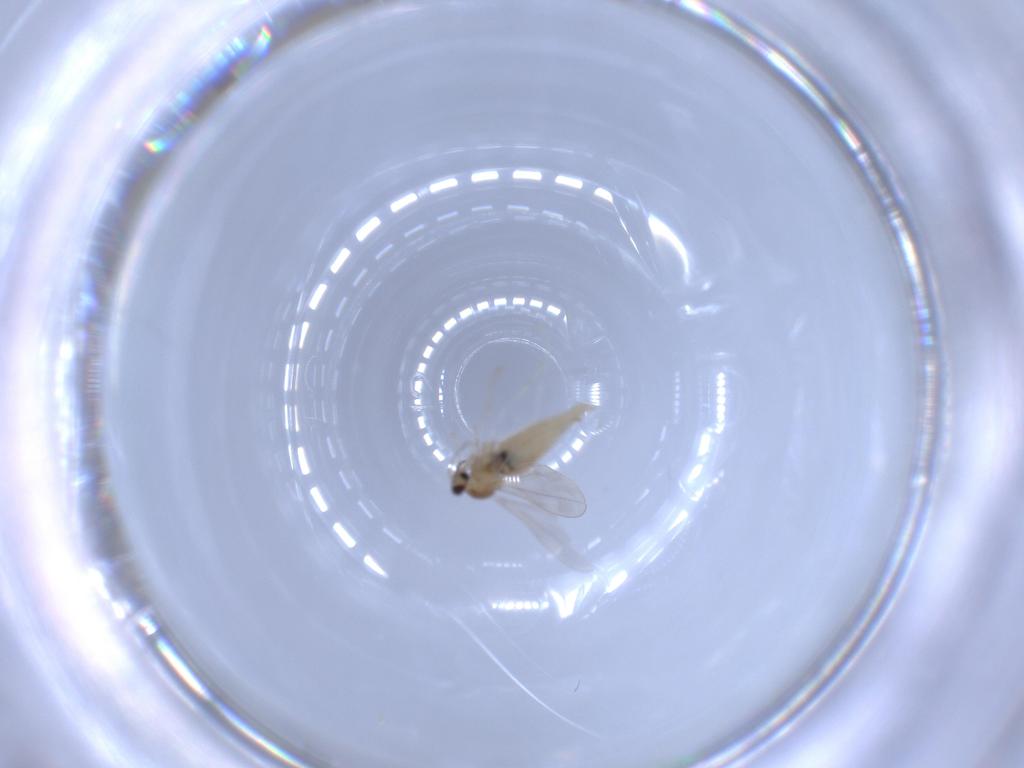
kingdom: Animalia
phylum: Arthropoda
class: Insecta
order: Diptera
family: Cecidomyiidae
